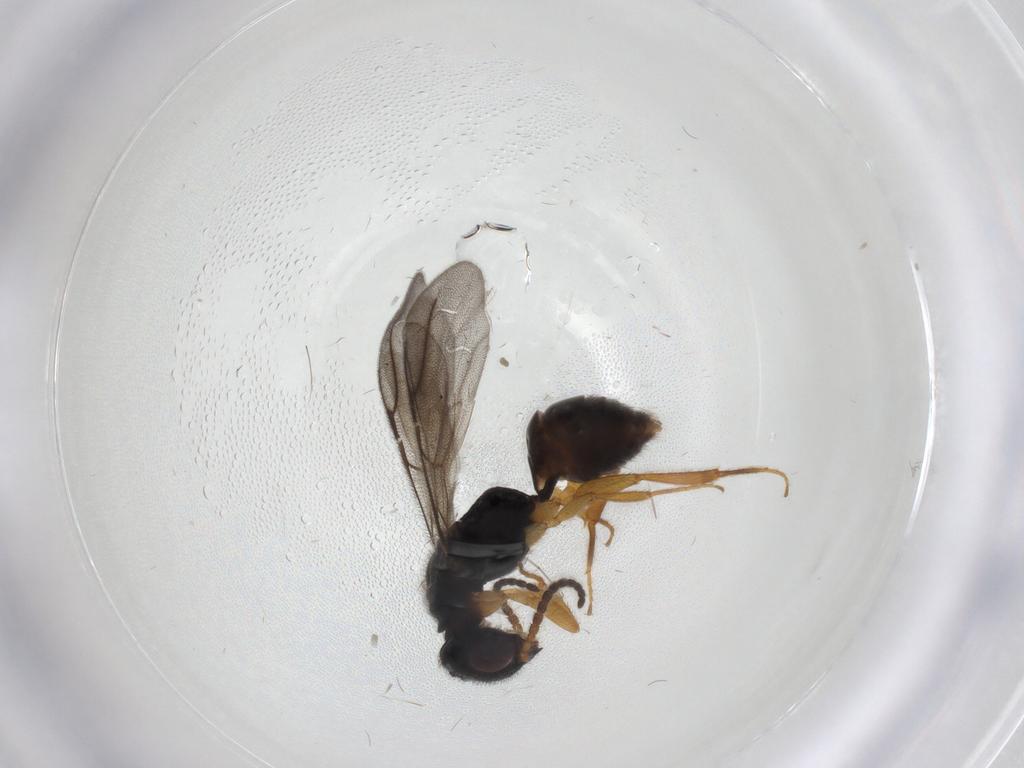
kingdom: Animalia
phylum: Arthropoda
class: Insecta
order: Hymenoptera
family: Bethylidae
